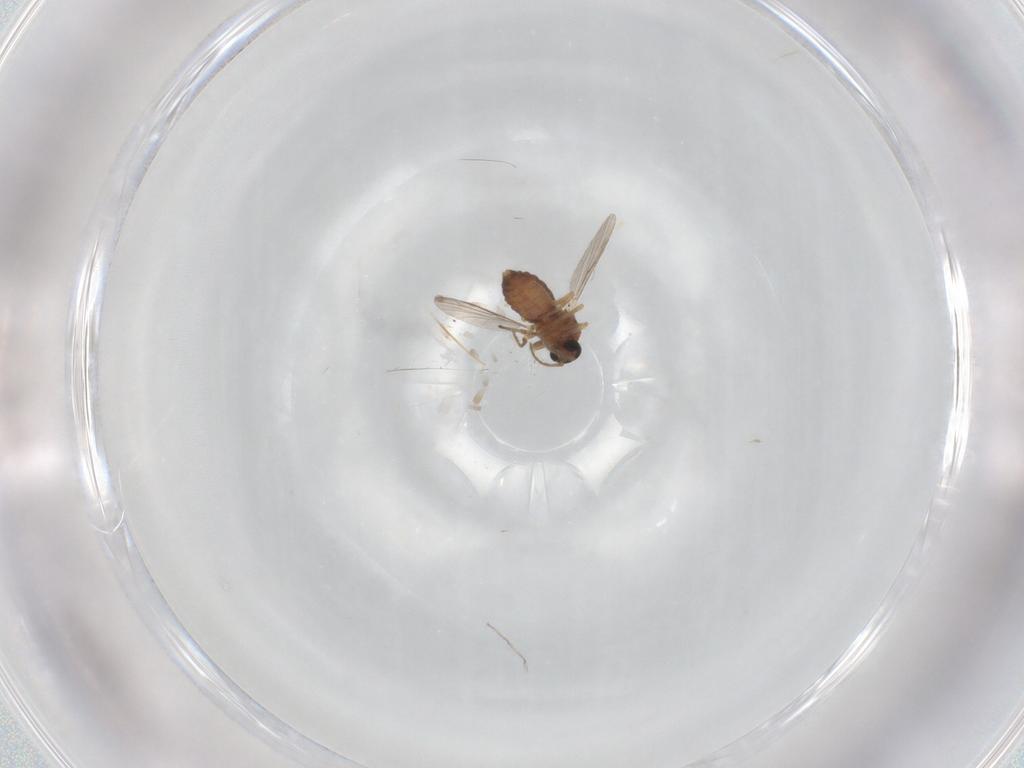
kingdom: Animalia
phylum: Arthropoda
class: Insecta
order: Diptera
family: Ceratopogonidae
